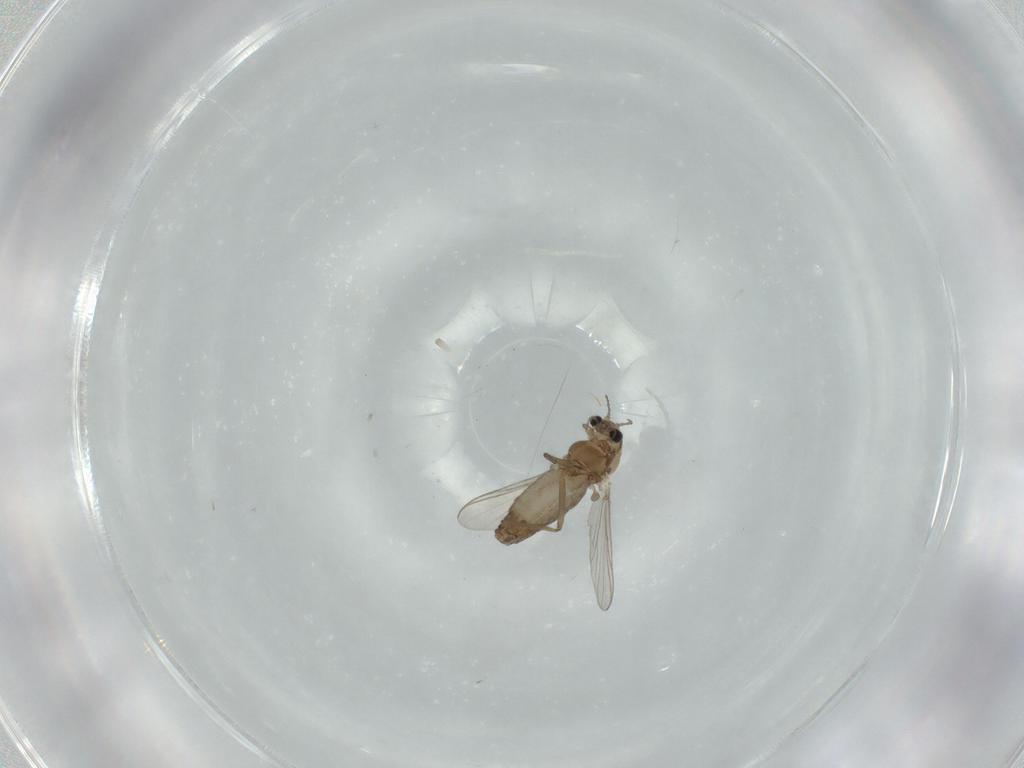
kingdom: Animalia
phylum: Arthropoda
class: Insecta
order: Diptera
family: Chironomidae
